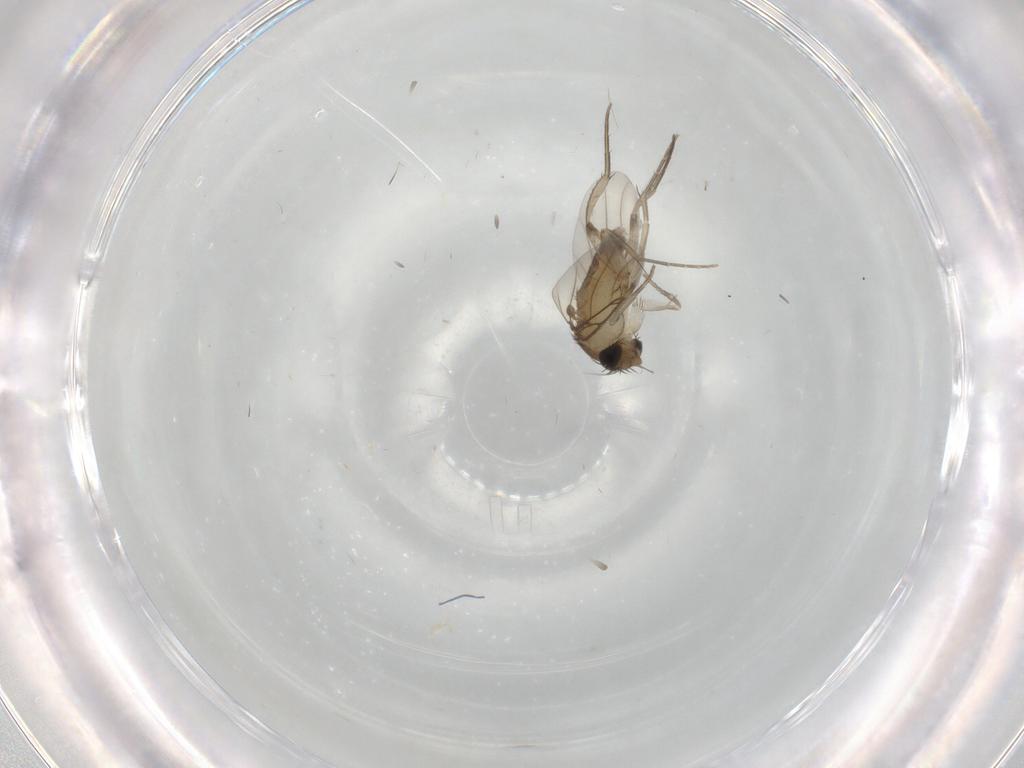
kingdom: Animalia
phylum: Arthropoda
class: Insecta
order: Diptera
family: Phoridae
